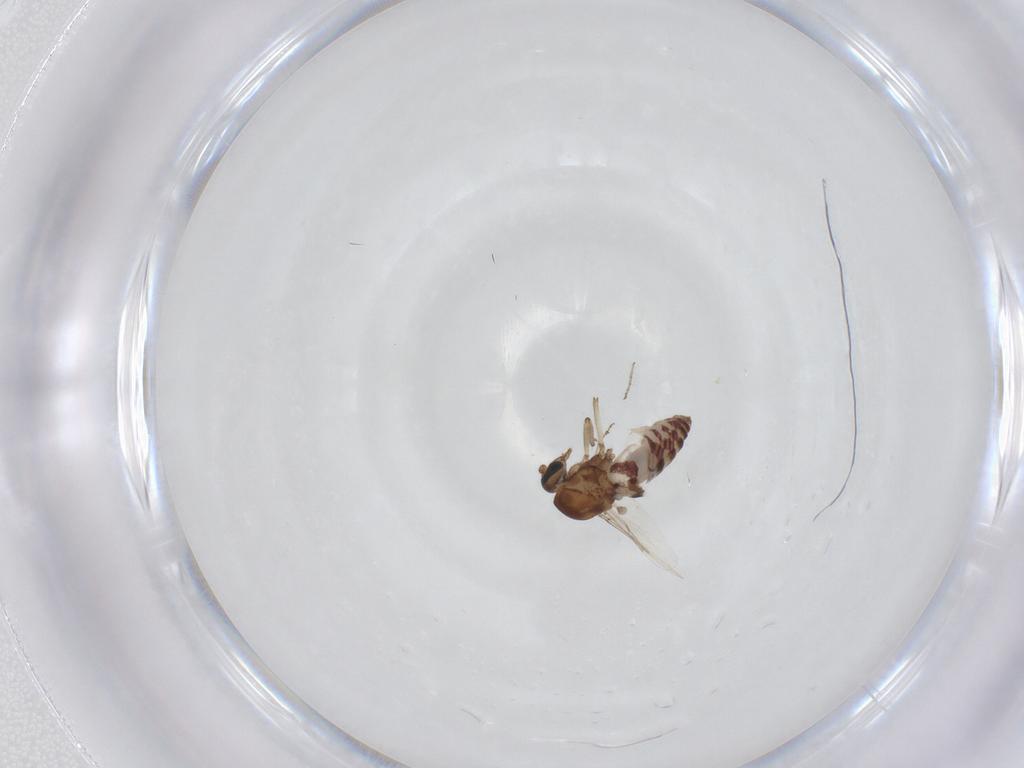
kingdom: Animalia
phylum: Arthropoda
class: Insecta
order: Diptera
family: Ceratopogonidae
